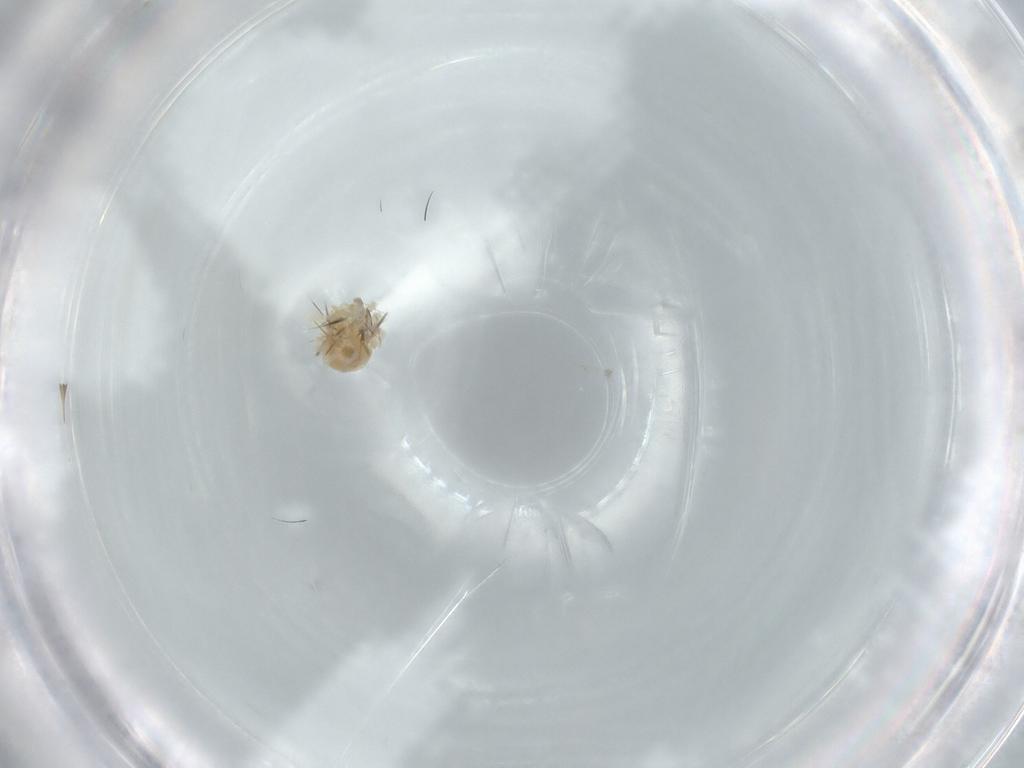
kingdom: Animalia
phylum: Arthropoda
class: Arachnida
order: Trombidiformes
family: Anystidae
